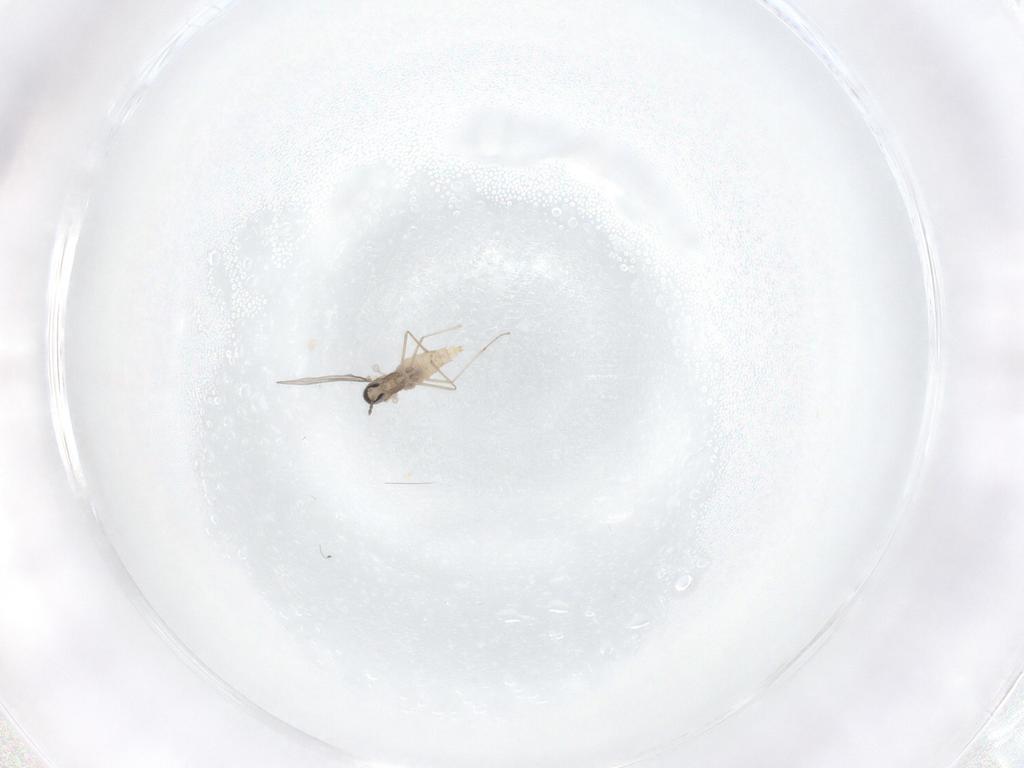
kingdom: Animalia
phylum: Arthropoda
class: Insecta
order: Diptera
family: Cecidomyiidae
